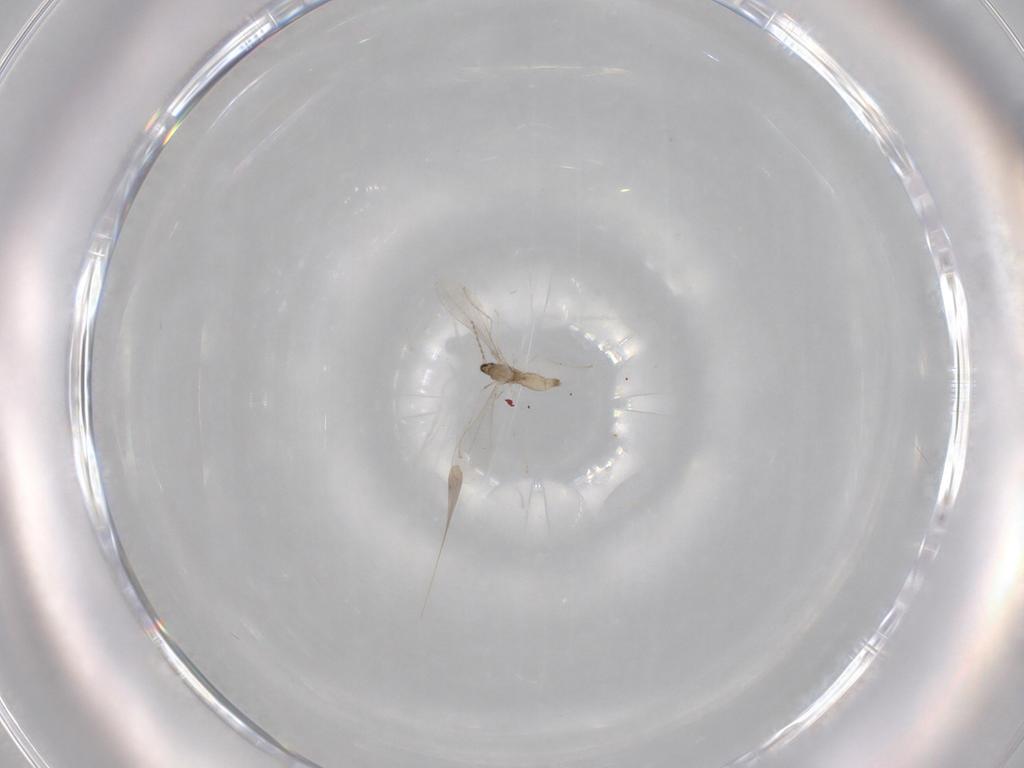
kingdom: Animalia
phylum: Arthropoda
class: Insecta
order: Diptera
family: Cecidomyiidae
